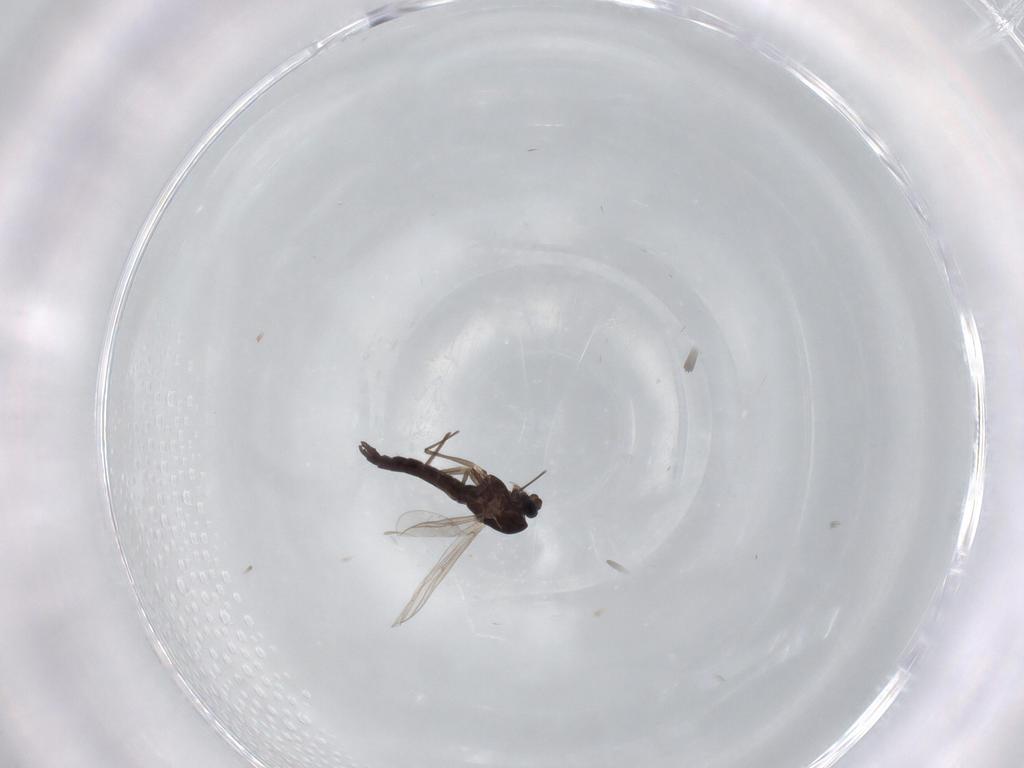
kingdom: Animalia
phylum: Arthropoda
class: Insecta
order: Diptera
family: Chironomidae
